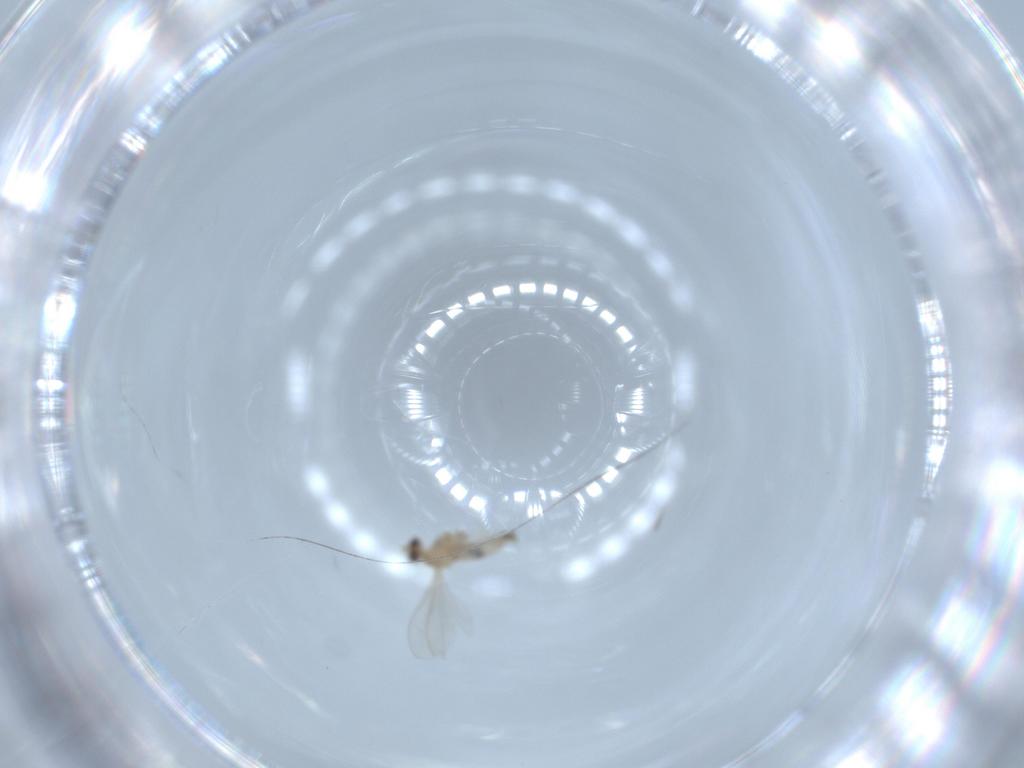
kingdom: Animalia
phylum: Arthropoda
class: Insecta
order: Diptera
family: Cecidomyiidae
